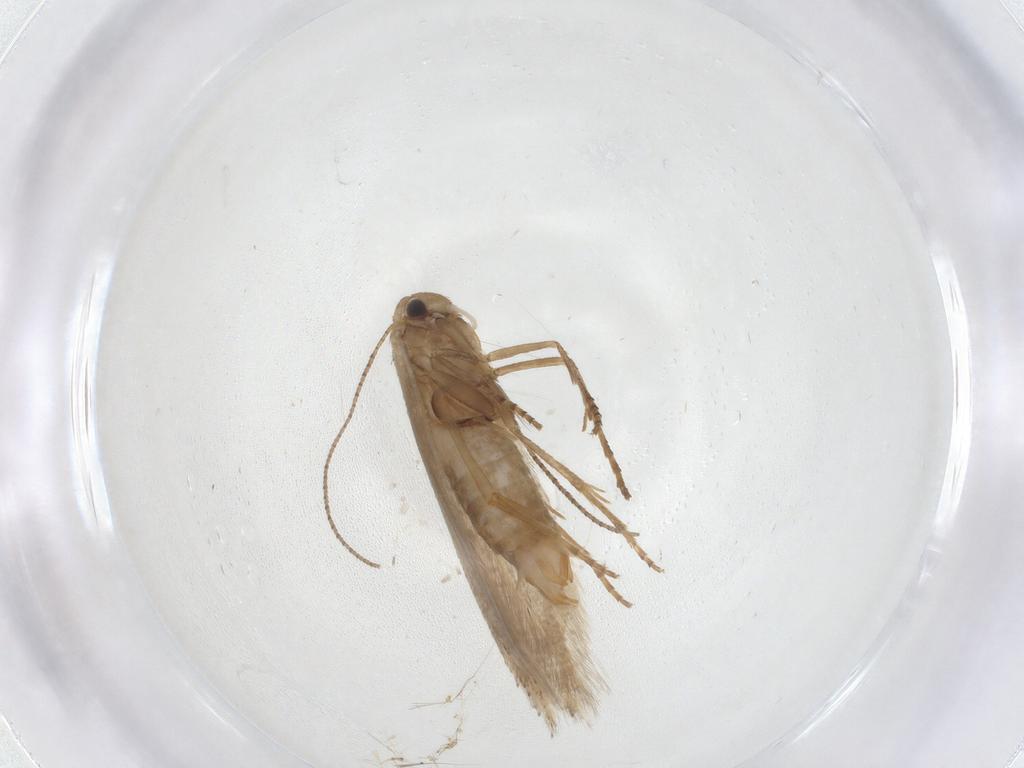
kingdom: Animalia
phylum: Arthropoda
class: Insecta
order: Lepidoptera
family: Bucculatricidae
